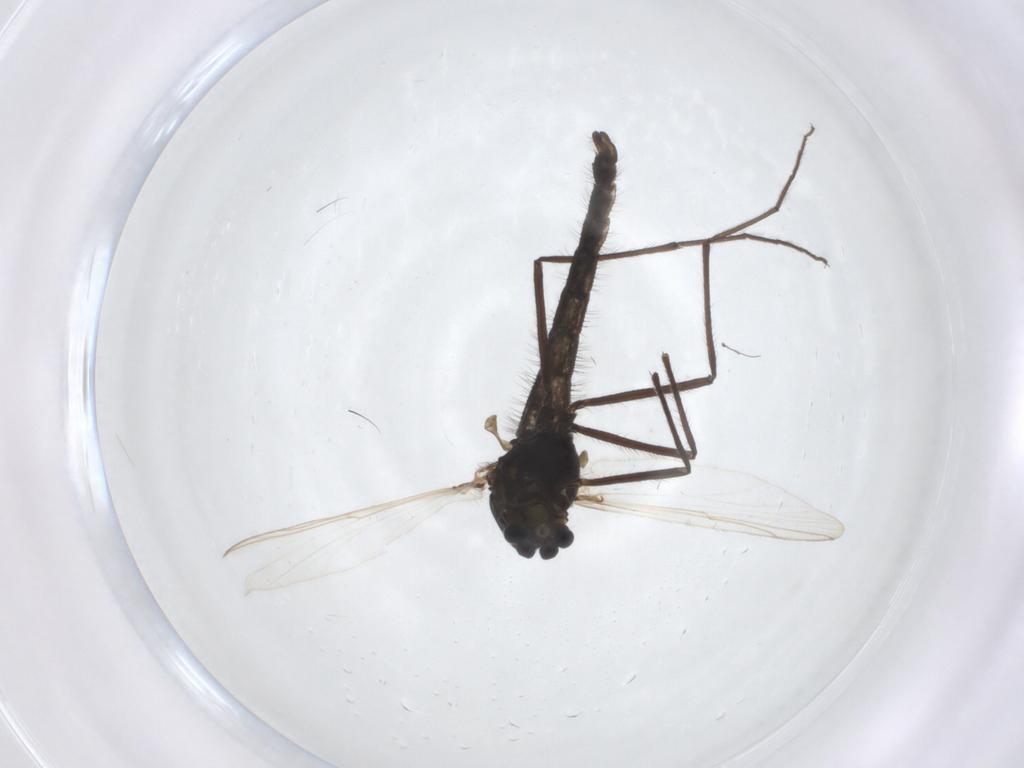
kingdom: Animalia
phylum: Arthropoda
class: Insecta
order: Diptera
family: Chironomidae
